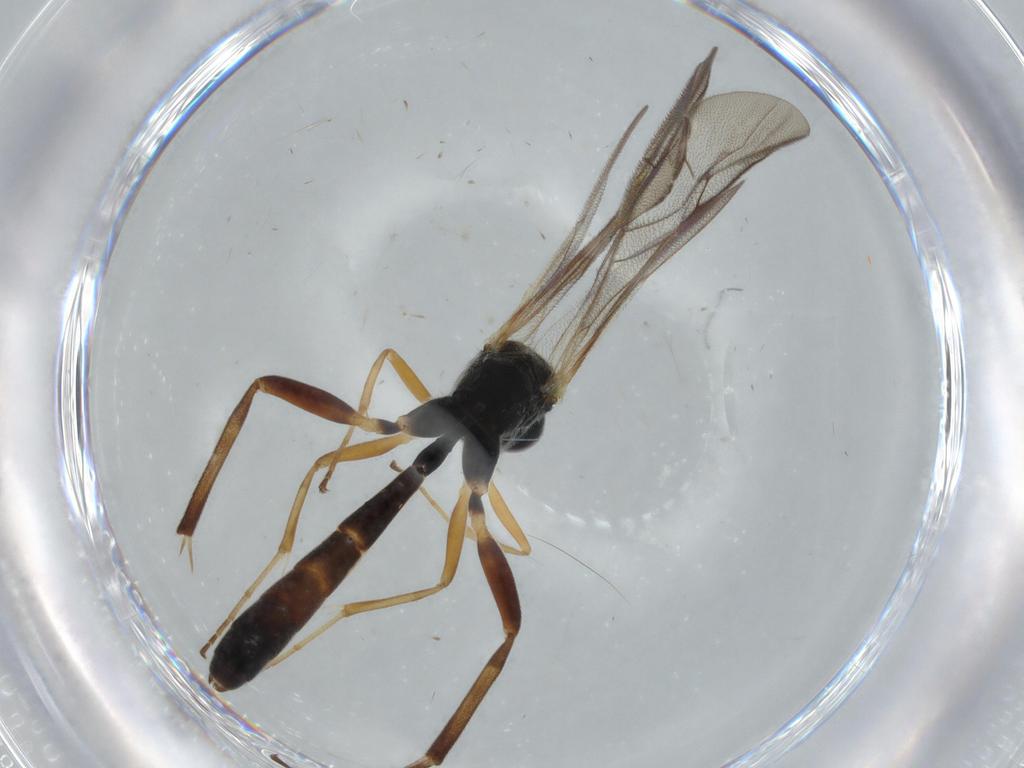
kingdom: Animalia
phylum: Arthropoda
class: Insecta
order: Hymenoptera
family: Ichneumonidae
